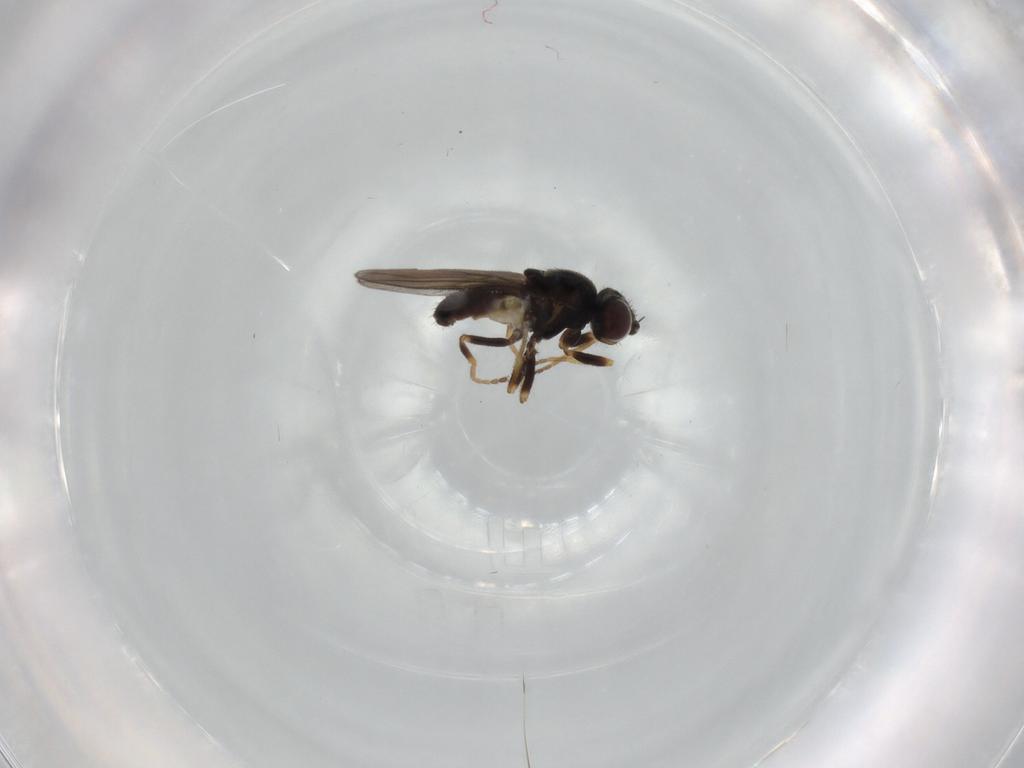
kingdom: Animalia
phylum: Arthropoda
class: Insecta
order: Diptera
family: Chloropidae
